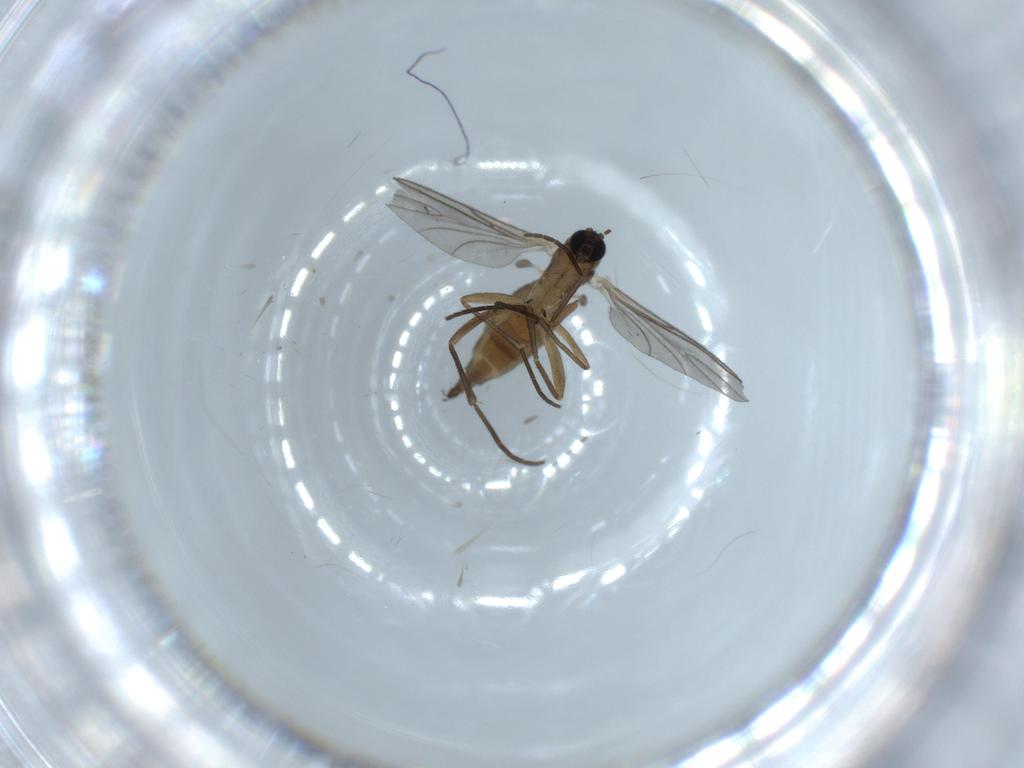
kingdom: Animalia
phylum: Arthropoda
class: Insecta
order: Diptera
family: Sciaridae
